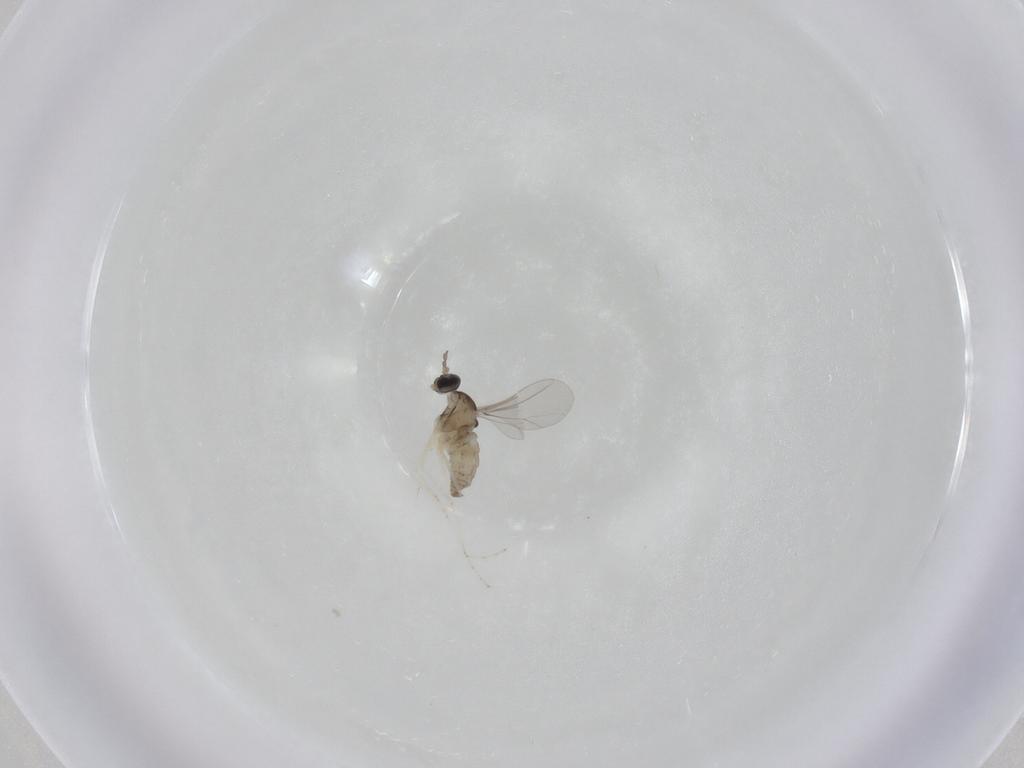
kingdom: Animalia
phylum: Arthropoda
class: Insecta
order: Diptera
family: Cecidomyiidae
